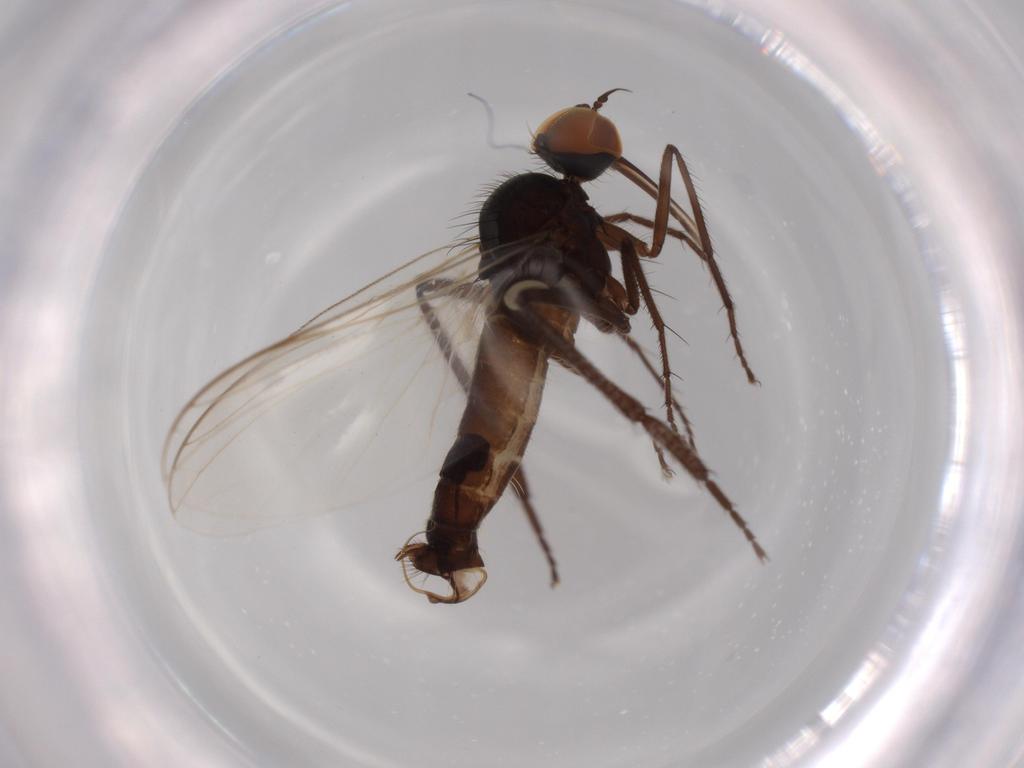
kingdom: Animalia
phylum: Arthropoda
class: Insecta
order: Diptera
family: Empididae
